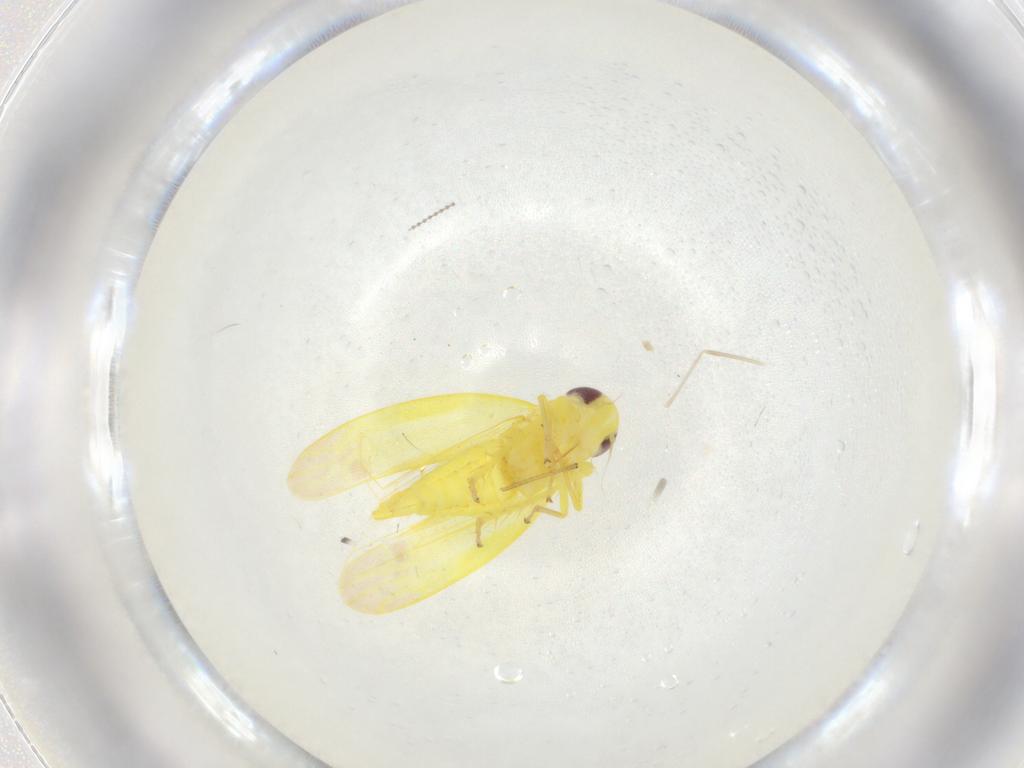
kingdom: Animalia
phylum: Arthropoda
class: Insecta
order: Hemiptera
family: Cicadellidae
